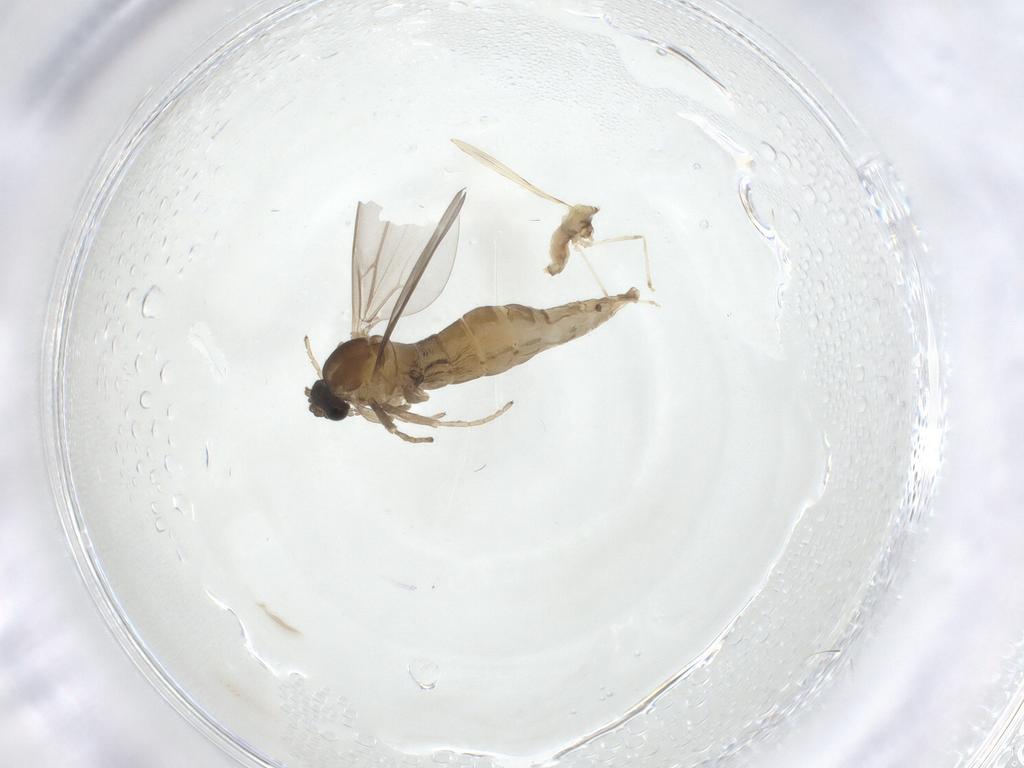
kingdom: Animalia
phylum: Arthropoda
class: Insecta
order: Diptera
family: Cecidomyiidae
